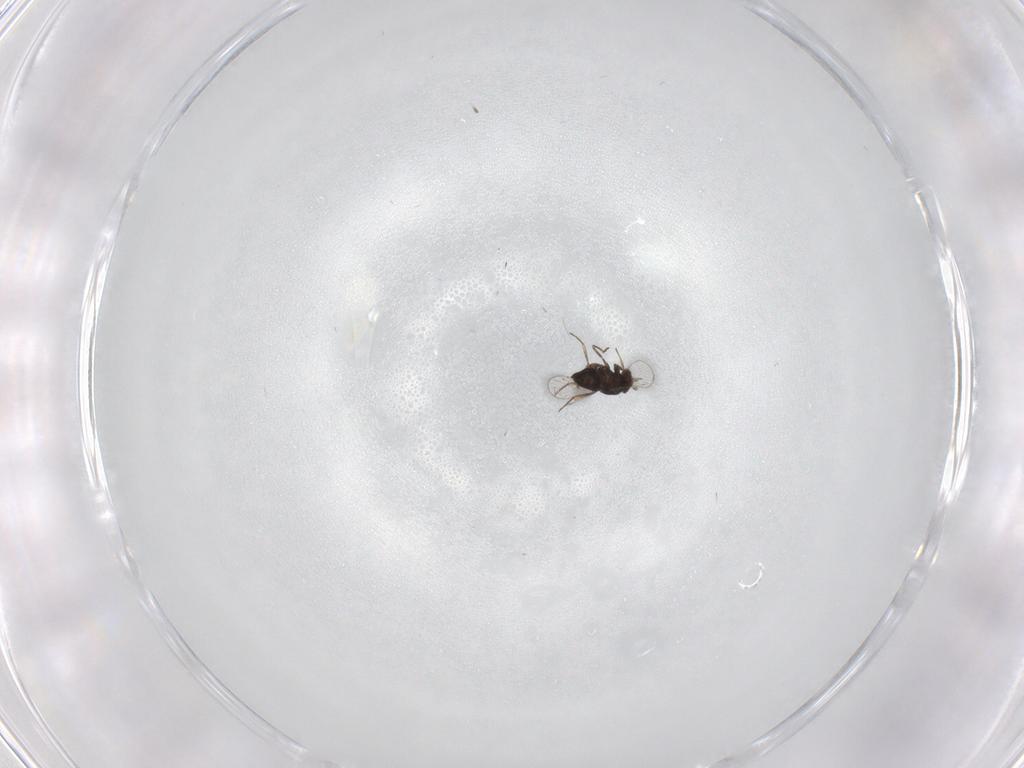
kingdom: Animalia
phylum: Arthropoda
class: Insecta
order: Hymenoptera
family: Trichogrammatidae
